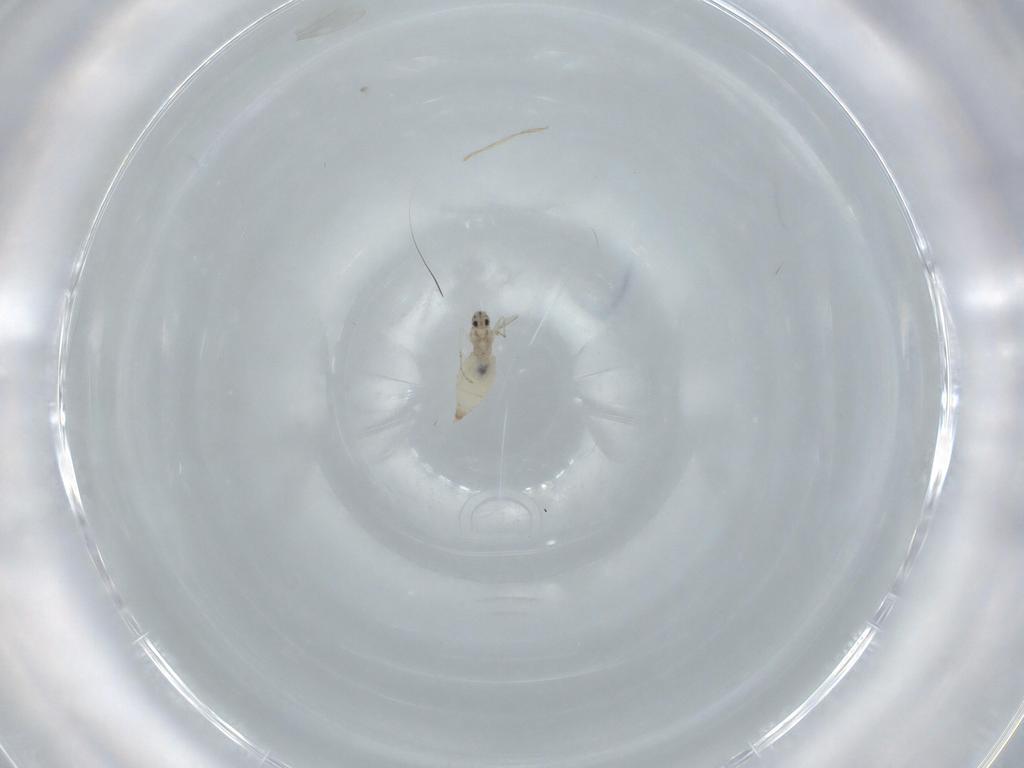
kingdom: Animalia
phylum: Arthropoda
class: Insecta
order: Diptera
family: Cecidomyiidae
